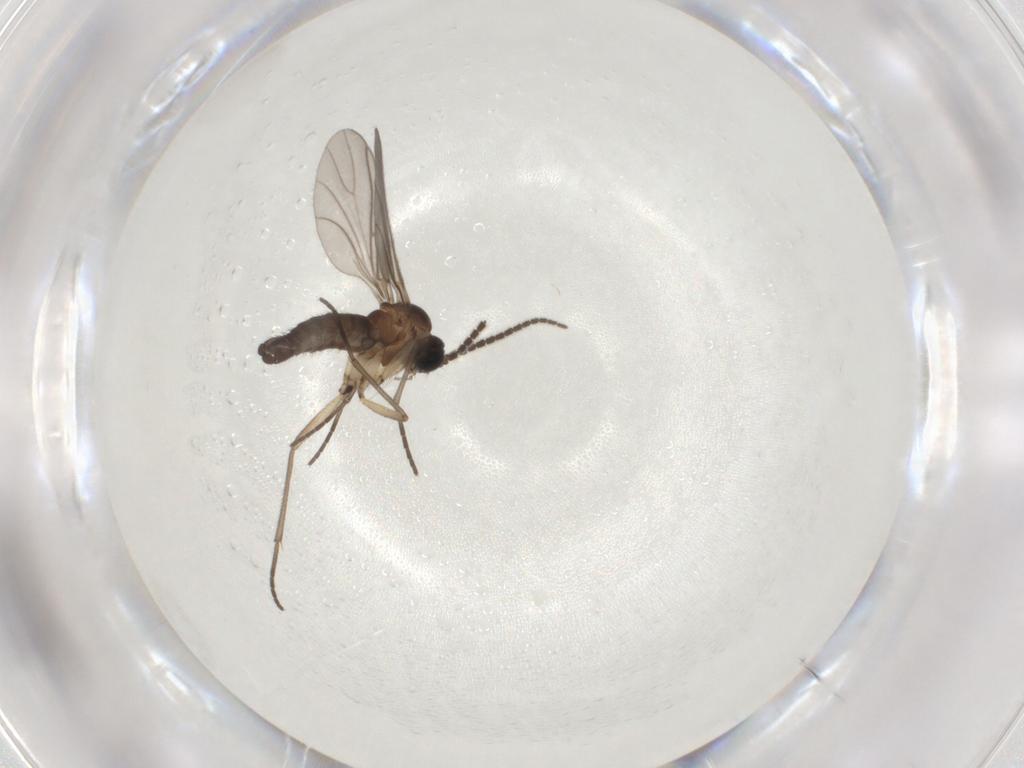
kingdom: Animalia
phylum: Arthropoda
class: Insecta
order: Diptera
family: Sciaridae
